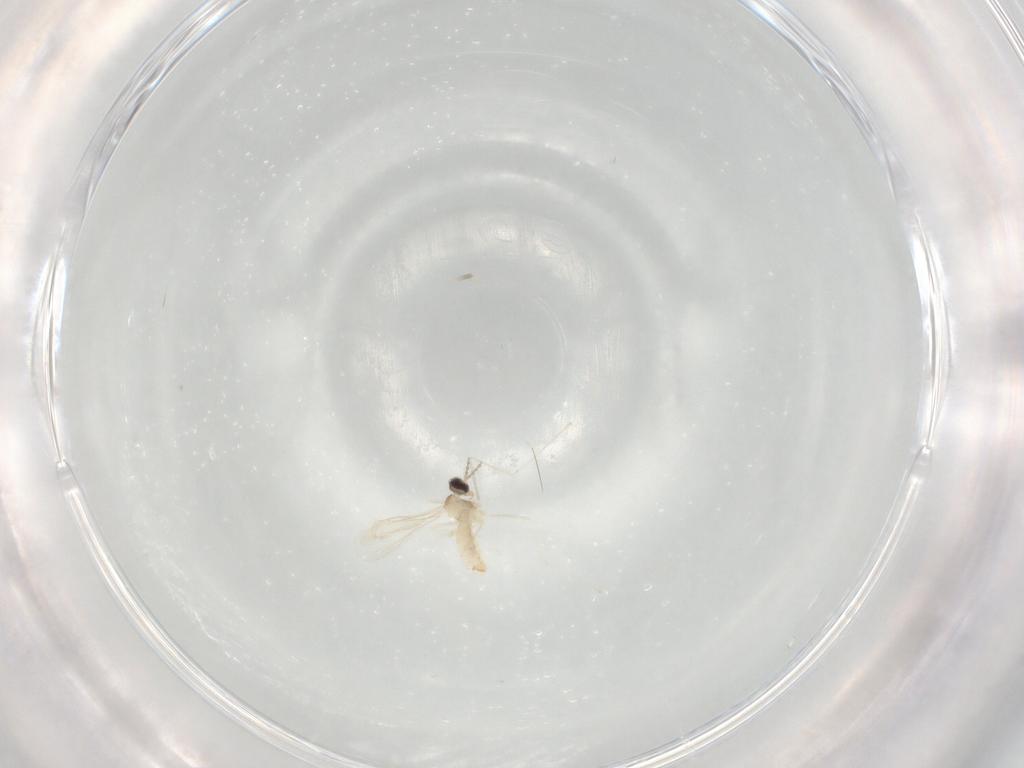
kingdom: Animalia
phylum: Arthropoda
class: Insecta
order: Diptera
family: Cecidomyiidae
